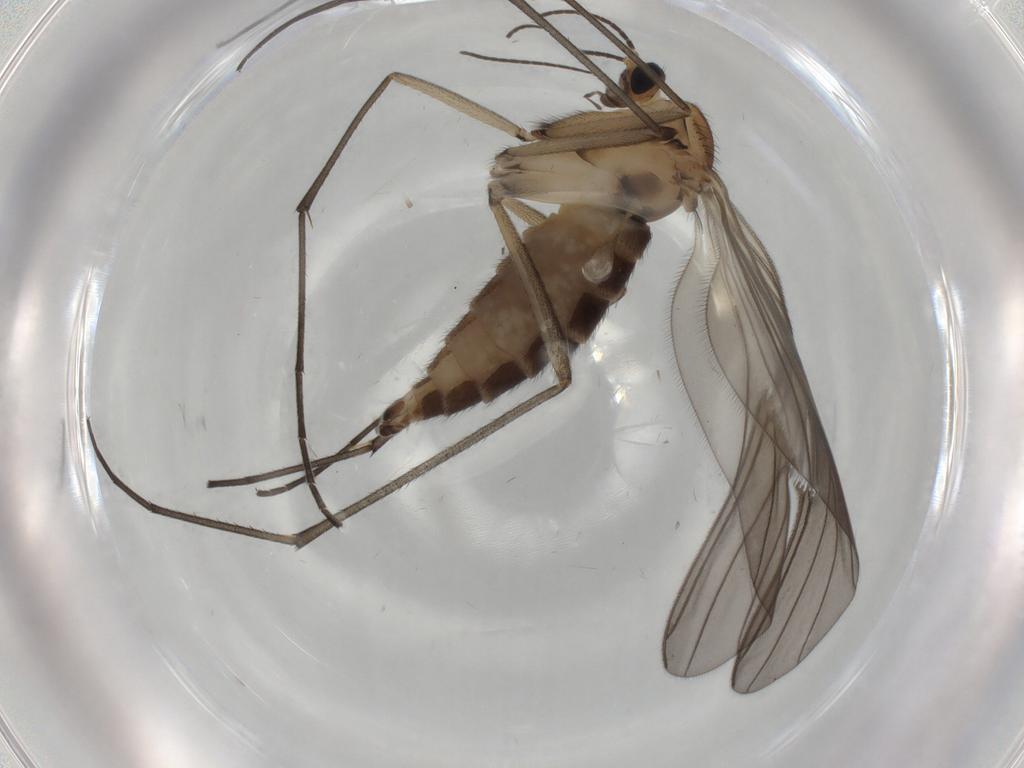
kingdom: Animalia
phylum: Arthropoda
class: Insecta
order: Diptera
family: Sciaridae
